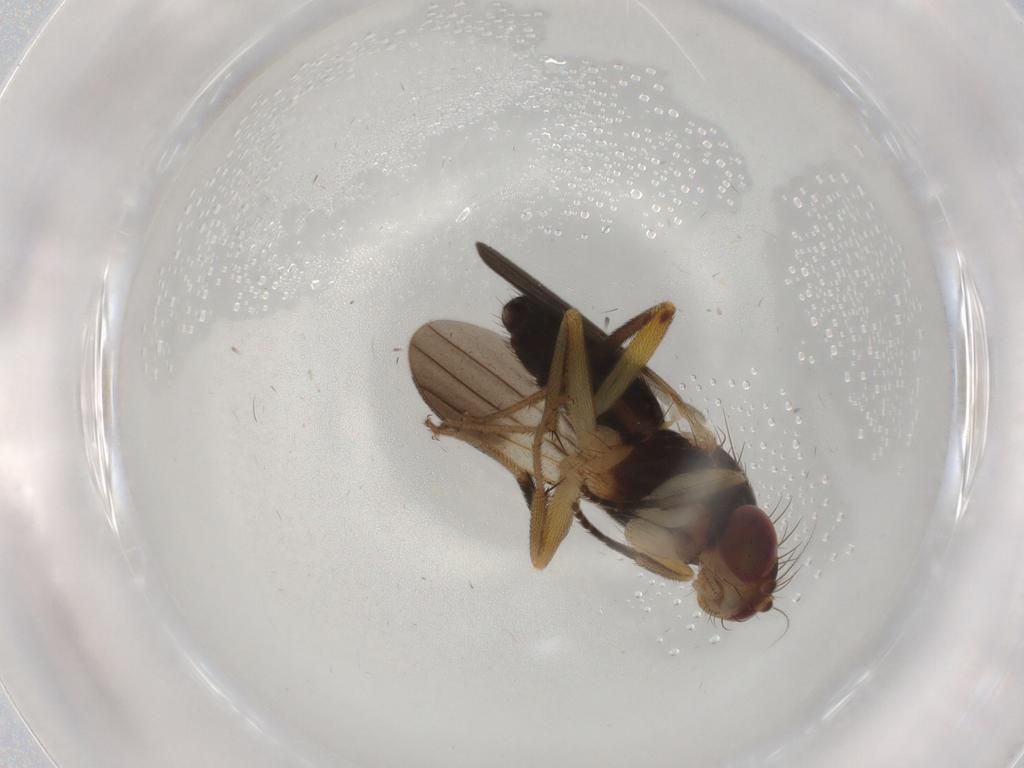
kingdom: Animalia
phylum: Arthropoda
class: Insecta
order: Diptera
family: Clusiidae
